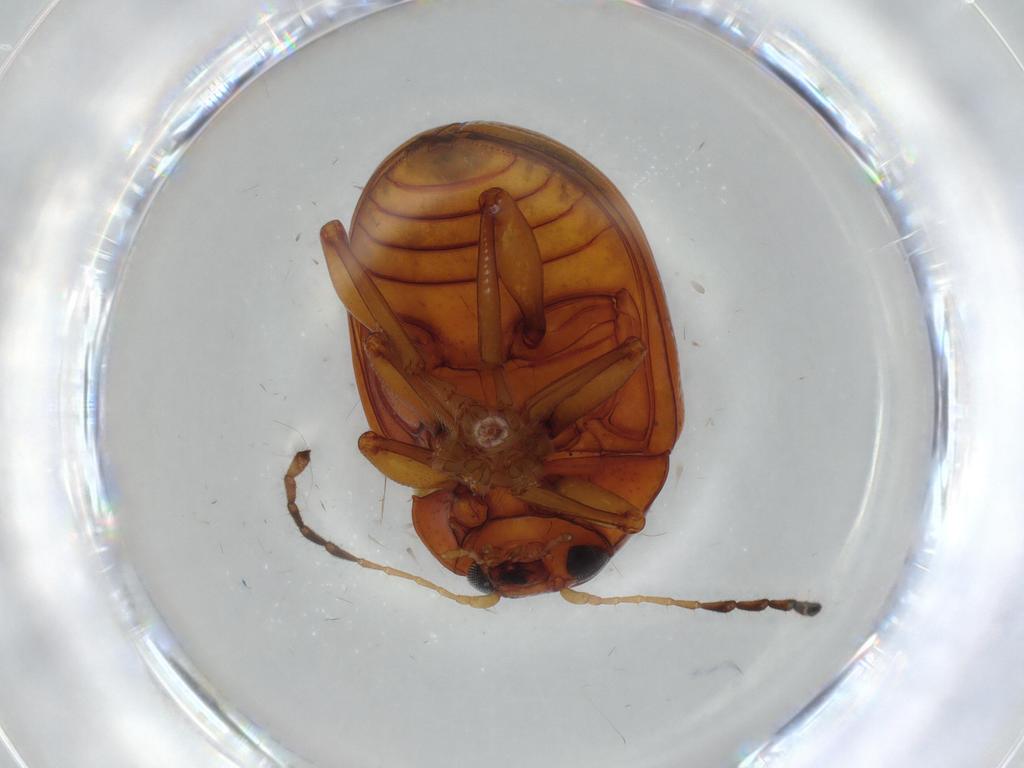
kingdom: Animalia
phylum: Arthropoda
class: Insecta
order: Coleoptera
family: Chrysomelidae
